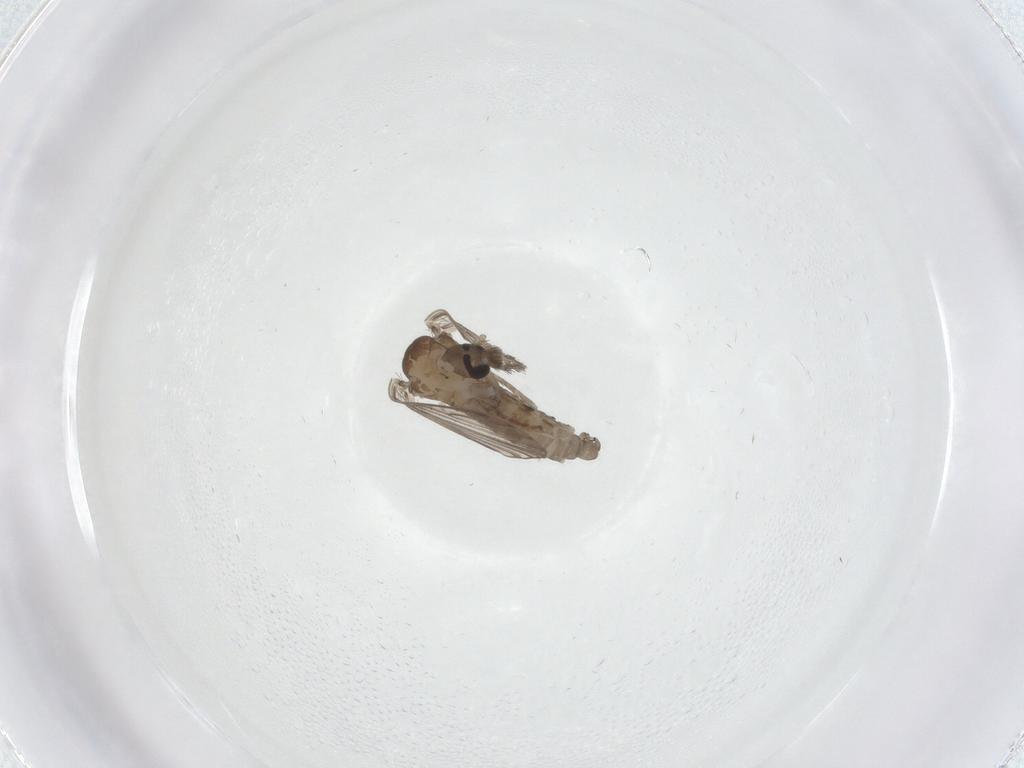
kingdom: Animalia
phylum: Arthropoda
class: Insecta
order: Diptera
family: Psychodidae
